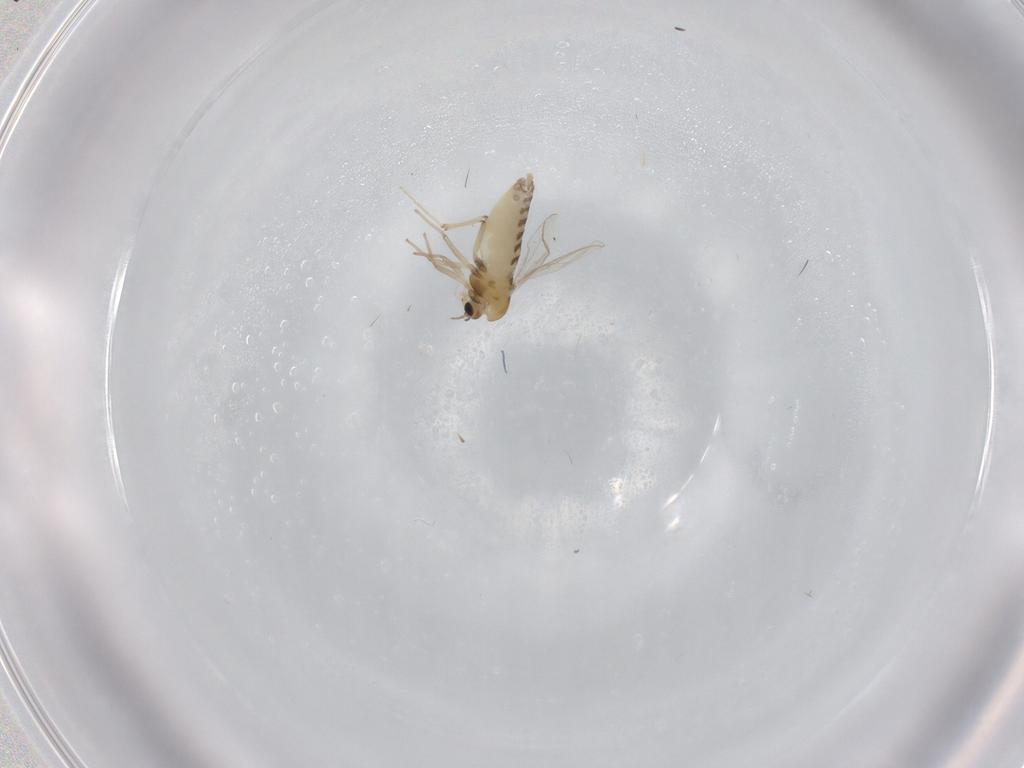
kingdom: Animalia
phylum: Arthropoda
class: Insecta
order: Diptera
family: Chironomidae
